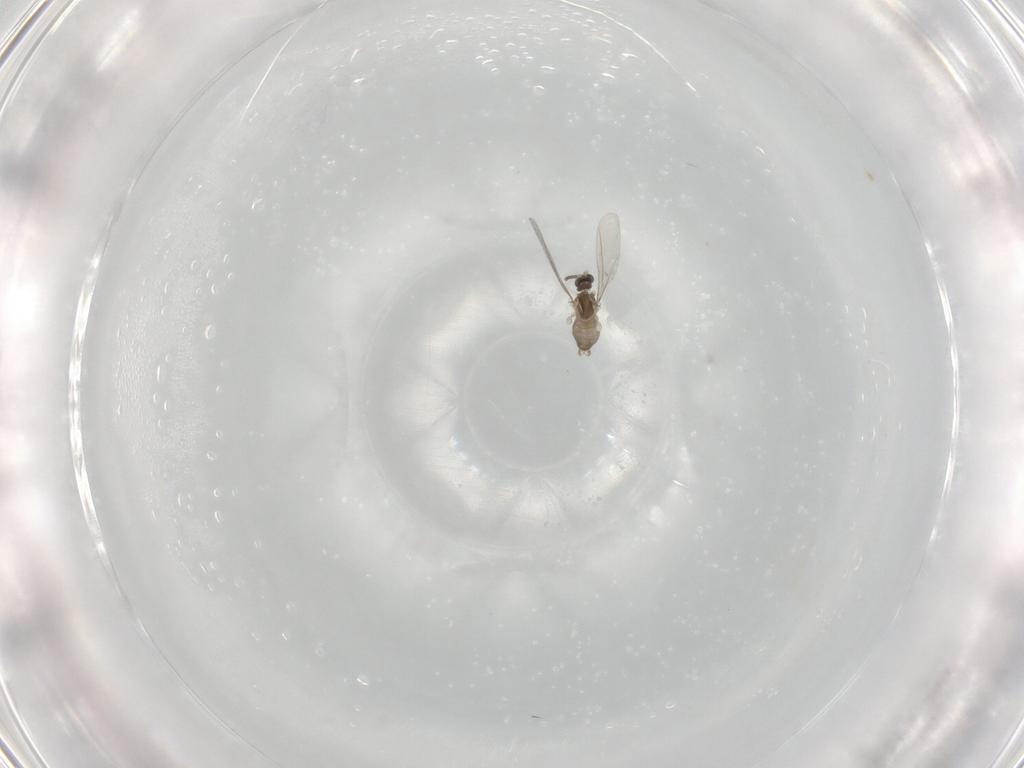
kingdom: Animalia
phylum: Arthropoda
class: Insecta
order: Diptera
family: Cecidomyiidae
